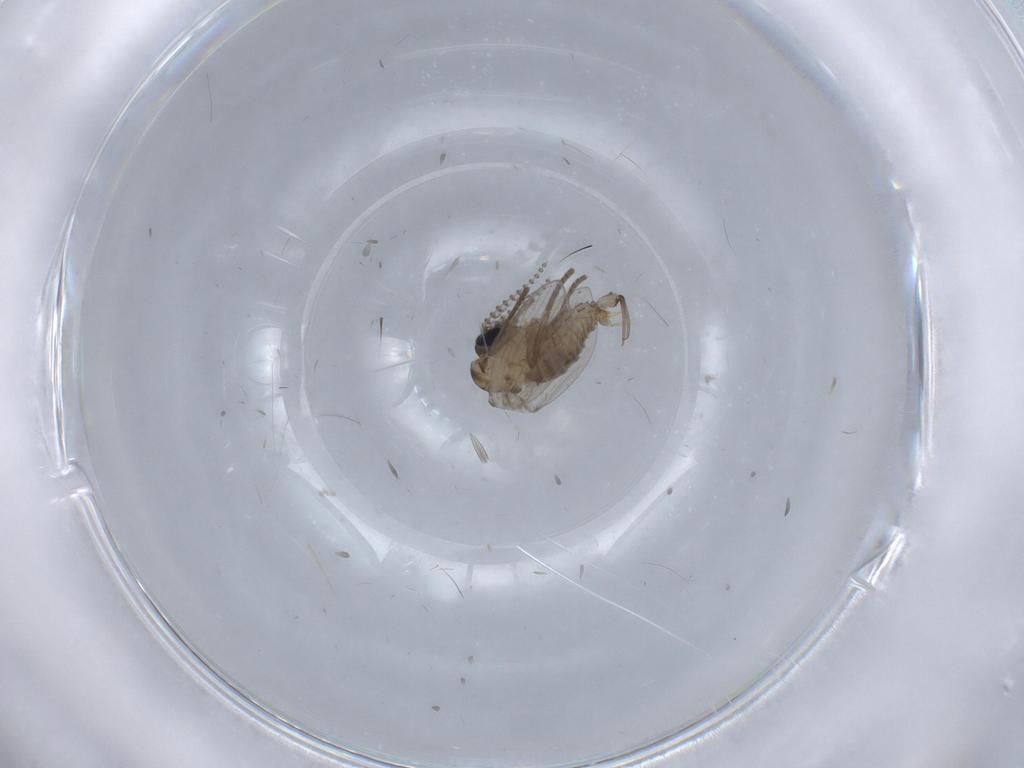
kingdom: Animalia
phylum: Arthropoda
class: Insecta
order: Diptera
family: Psychodidae
